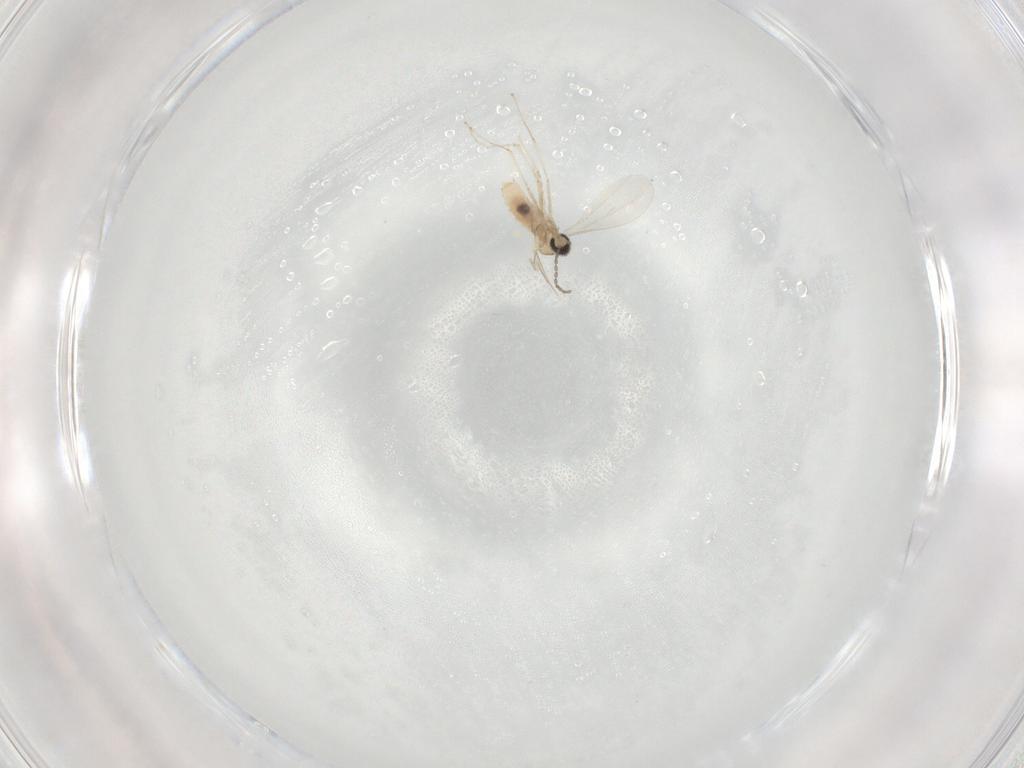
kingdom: Animalia
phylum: Arthropoda
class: Insecta
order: Diptera
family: Cecidomyiidae
